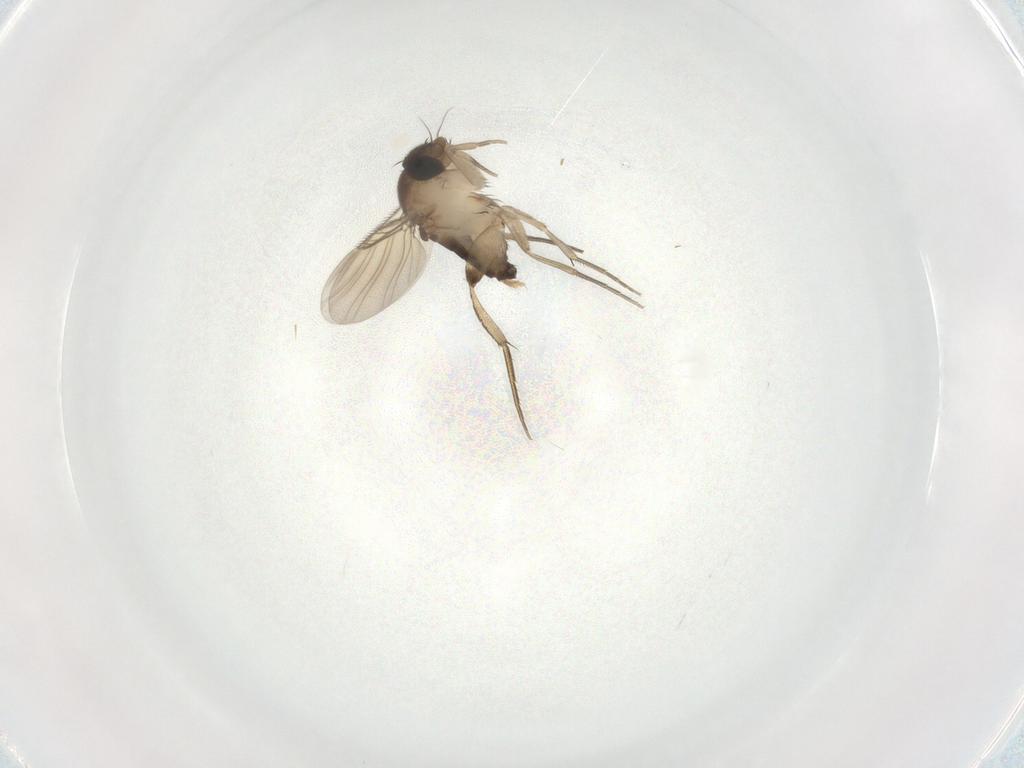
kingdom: Animalia
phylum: Arthropoda
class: Insecta
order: Diptera
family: Phoridae
